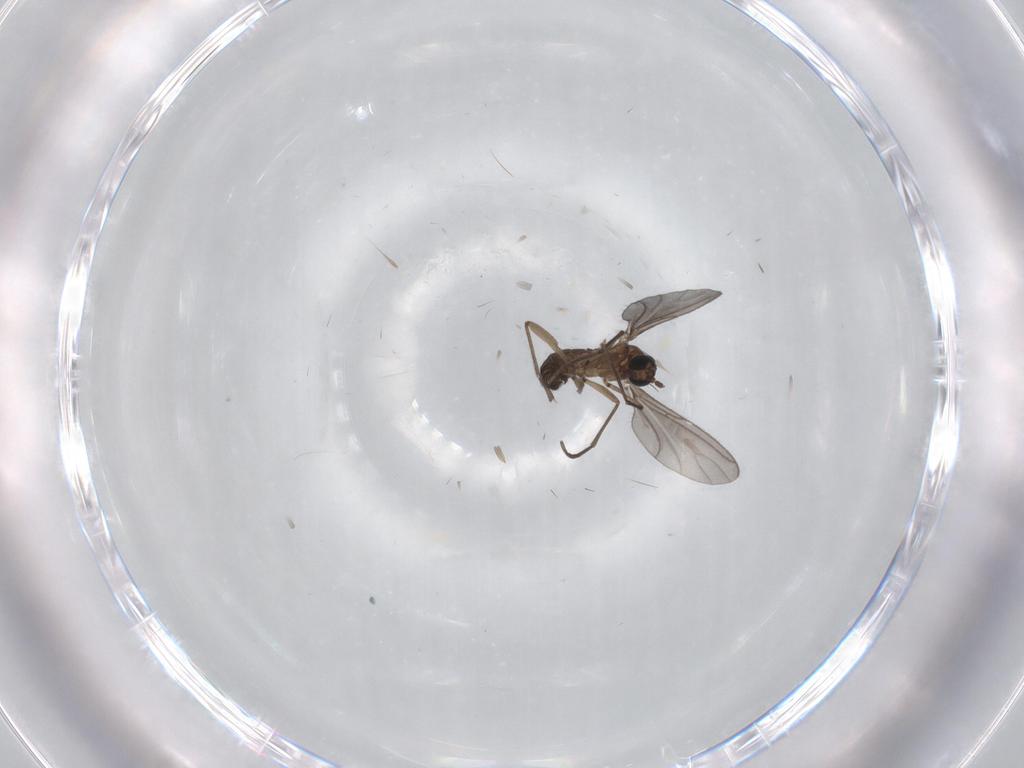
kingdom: Animalia
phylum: Arthropoda
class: Insecta
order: Diptera
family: Sciaridae
